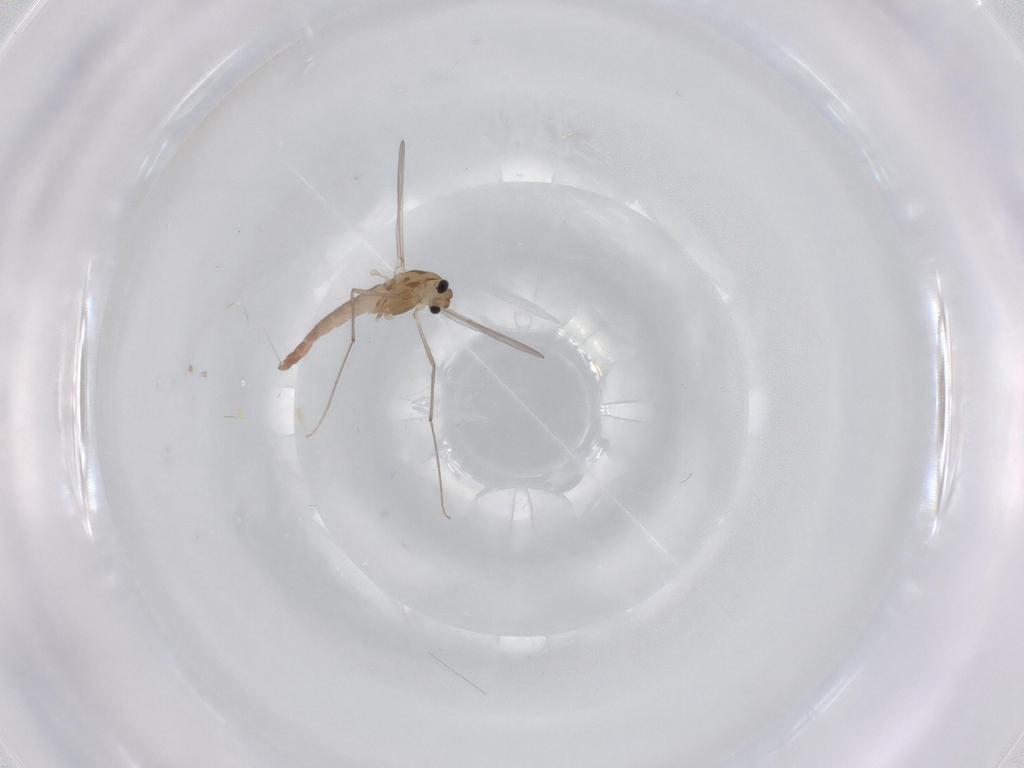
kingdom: Animalia
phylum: Arthropoda
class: Insecta
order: Diptera
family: Chironomidae
